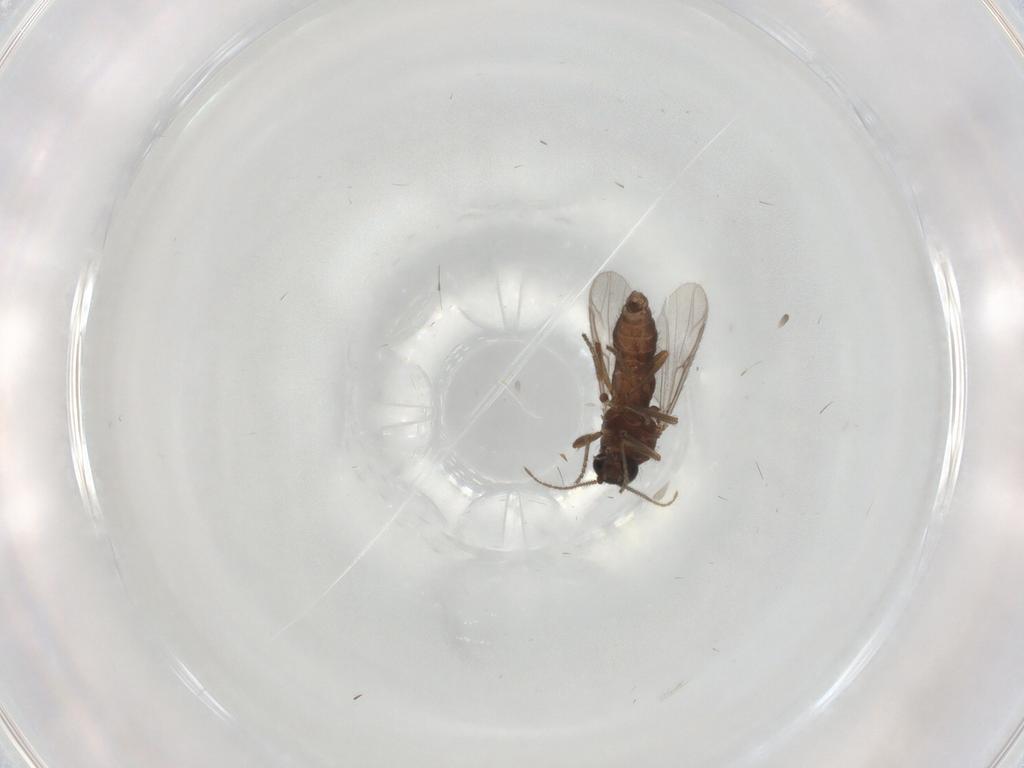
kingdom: Animalia
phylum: Arthropoda
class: Insecta
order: Diptera
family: Ceratopogonidae
